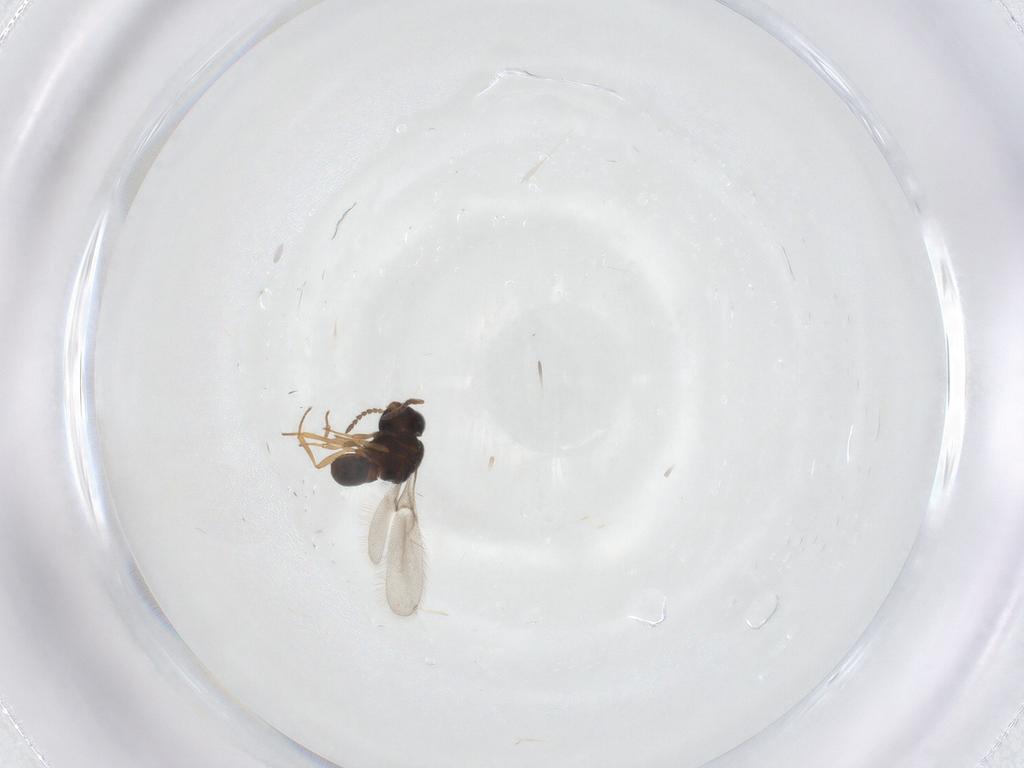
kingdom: Animalia
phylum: Arthropoda
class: Insecta
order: Hymenoptera
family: Scelionidae
